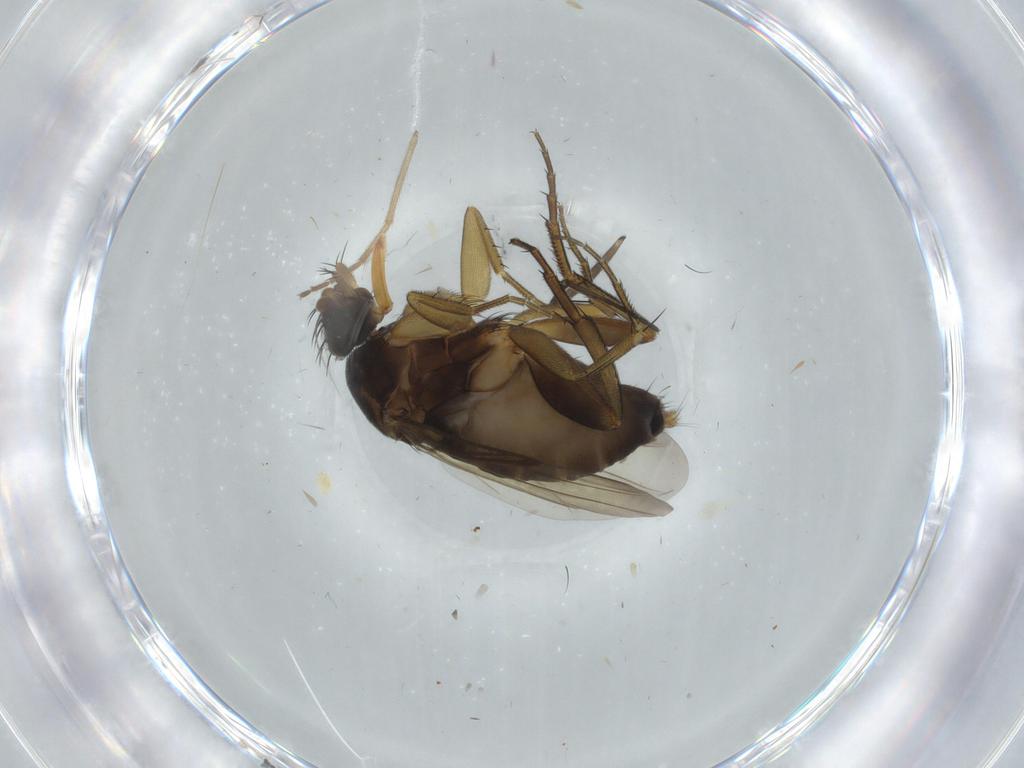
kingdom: Animalia
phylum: Arthropoda
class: Insecta
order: Diptera
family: Phoridae
